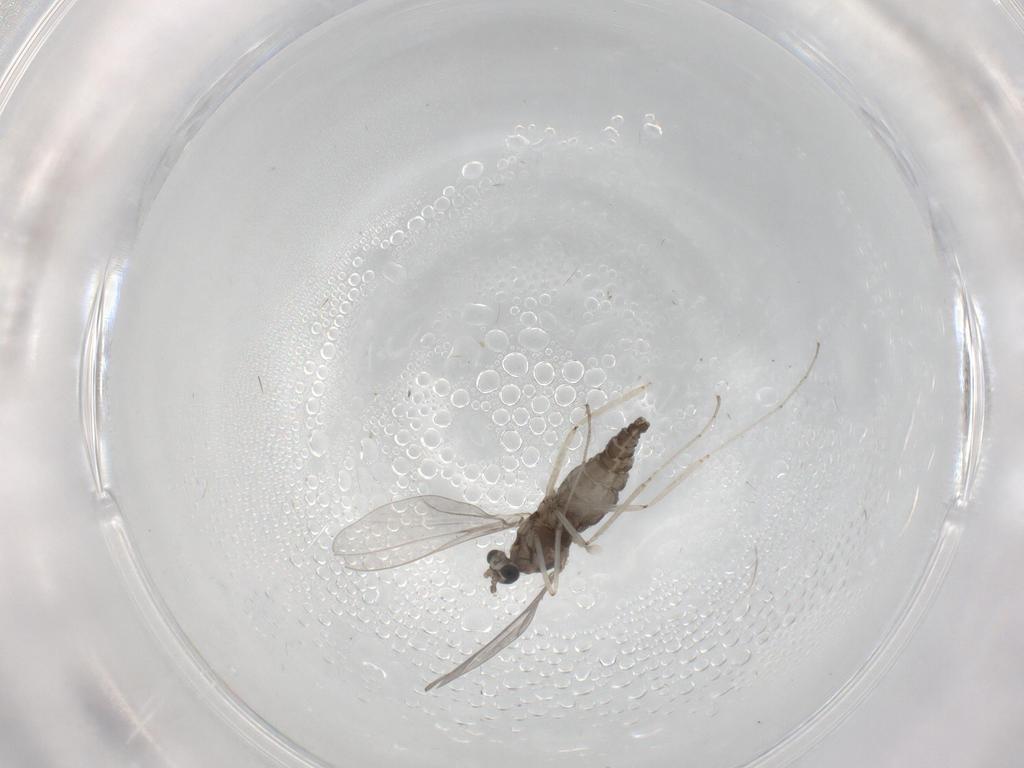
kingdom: Animalia
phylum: Arthropoda
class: Insecta
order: Diptera
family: Cecidomyiidae
